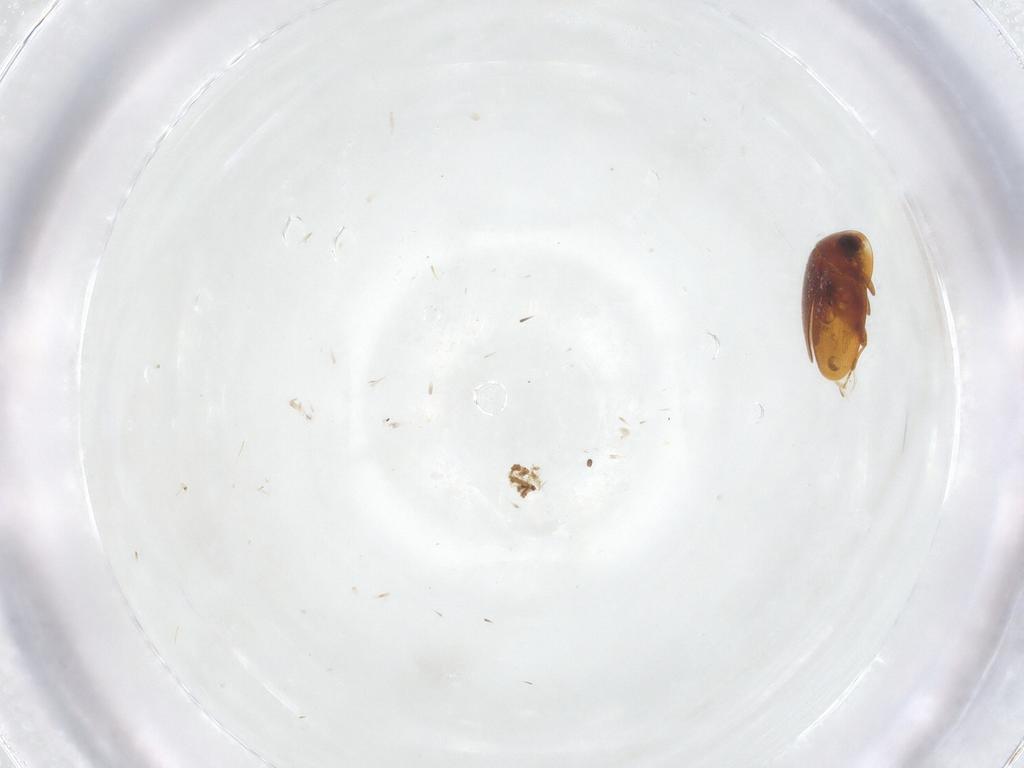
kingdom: Animalia
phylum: Arthropoda
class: Insecta
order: Coleoptera
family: Corylophidae
